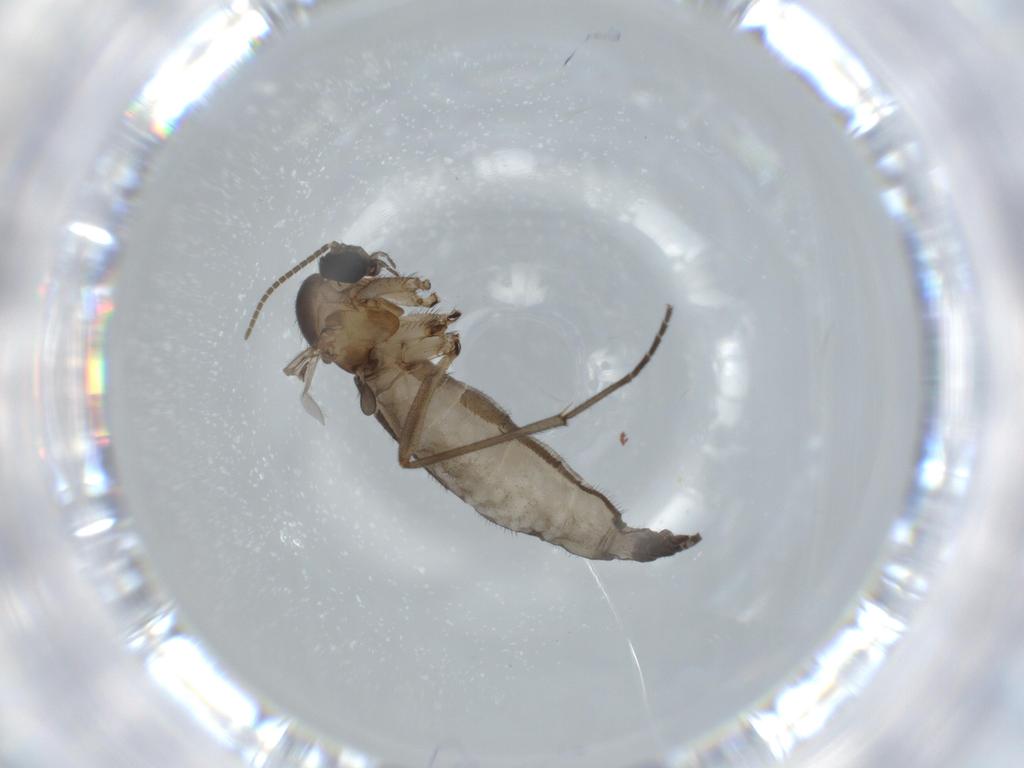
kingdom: Animalia
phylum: Arthropoda
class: Insecta
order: Diptera
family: Sciaridae
